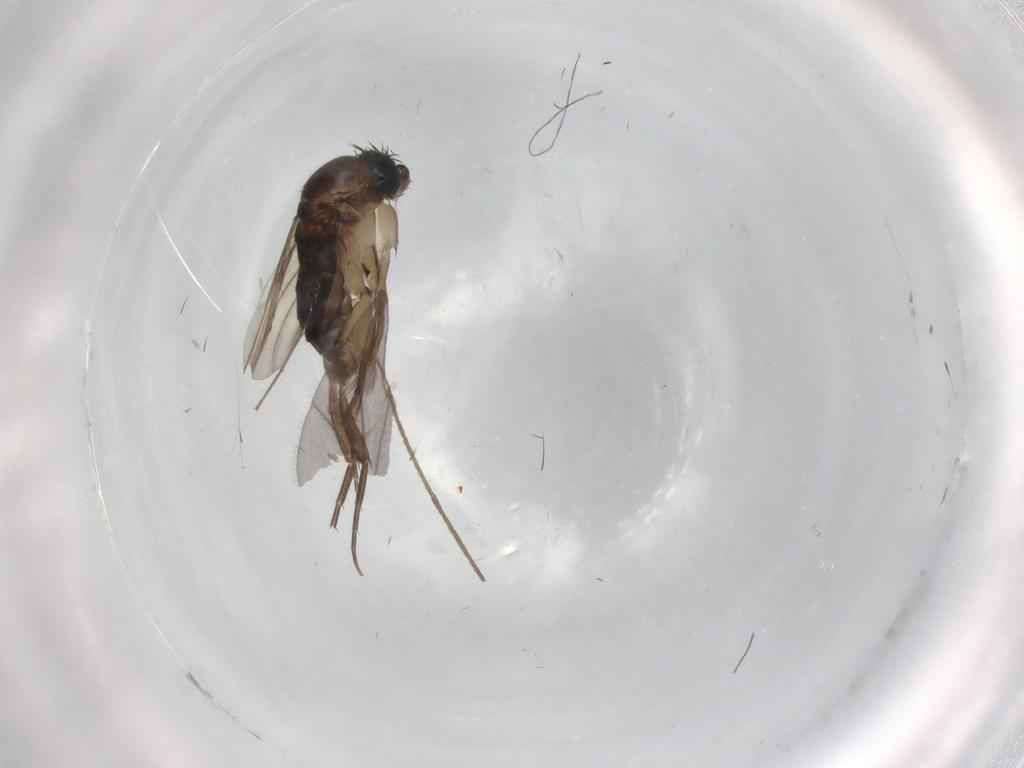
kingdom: Animalia
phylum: Arthropoda
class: Insecta
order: Diptera
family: Phoridae
